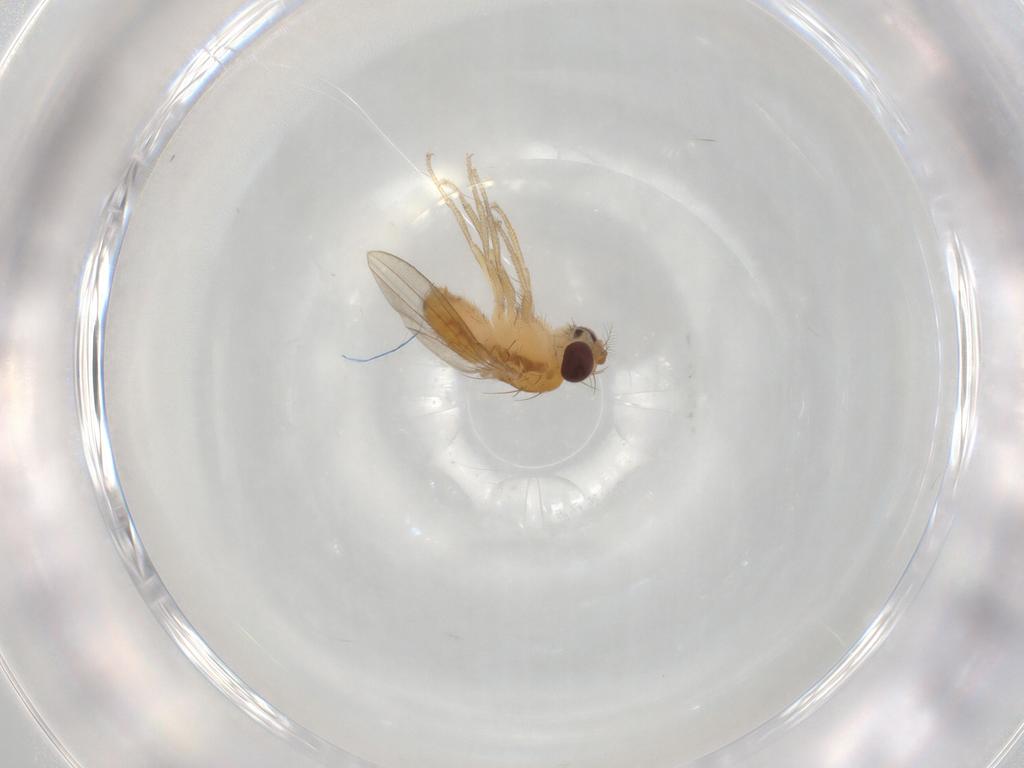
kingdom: Animalia
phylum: Arthropoda
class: Insecta
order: Diptera
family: Drosophilidae
